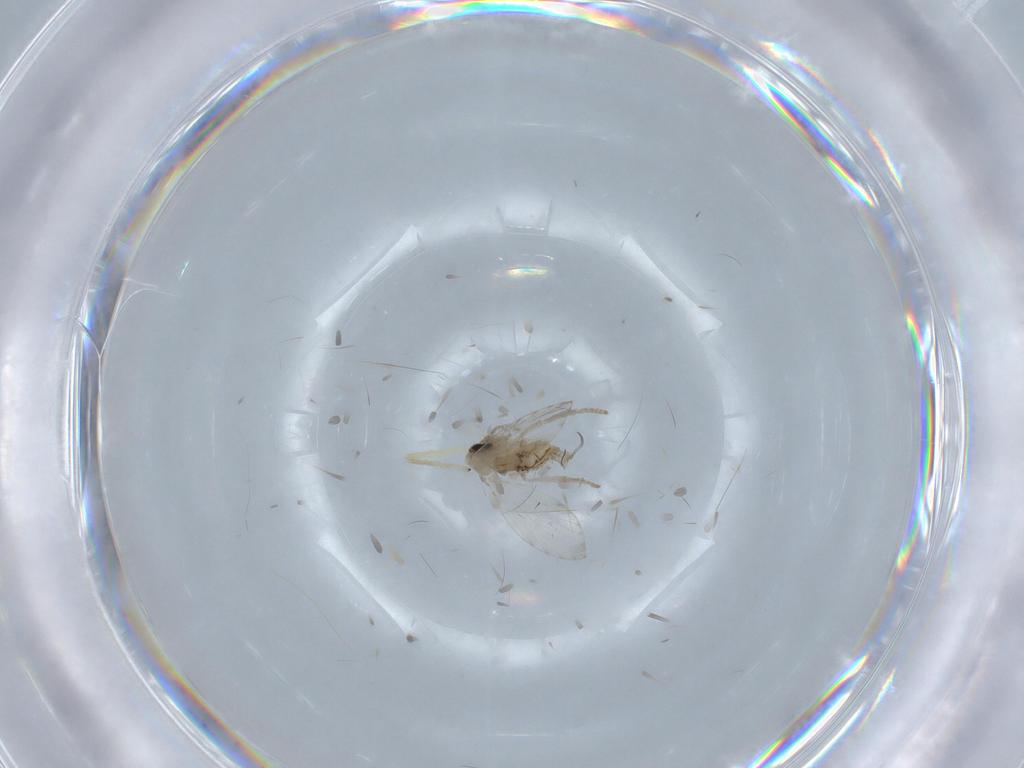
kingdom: Animalia
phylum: Arthropoda
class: Insecta
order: Diptera
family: Psychodidae
